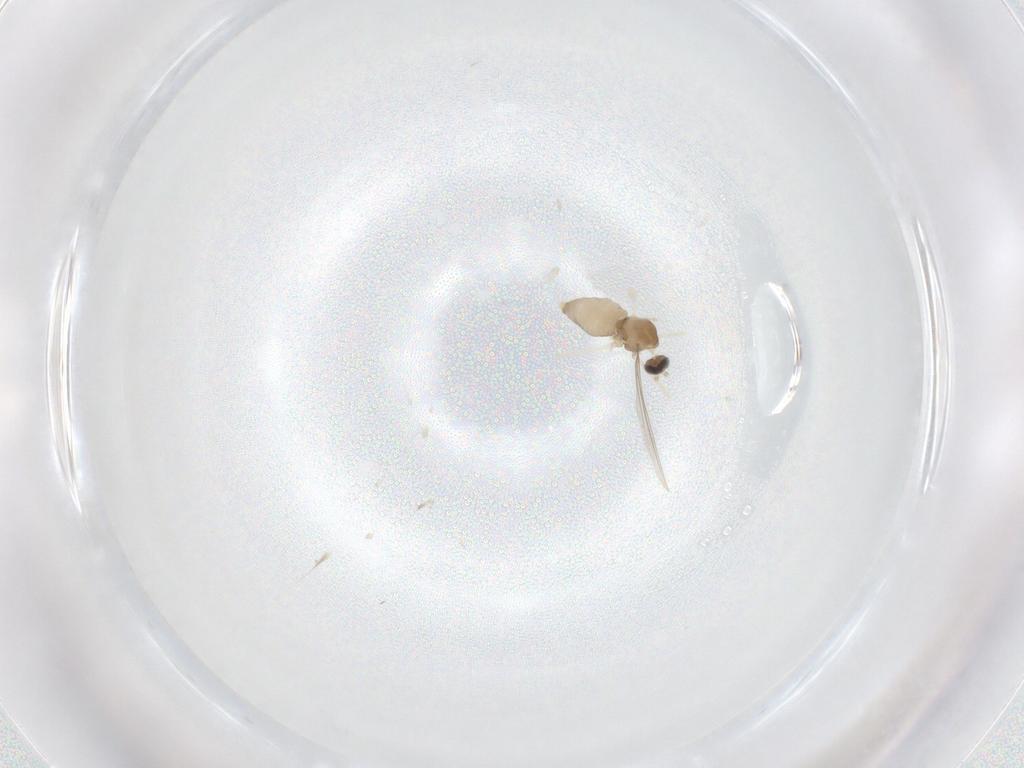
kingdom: Animalia
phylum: Arthropoda
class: Insecta
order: Diptera
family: Cecidomyiidae
